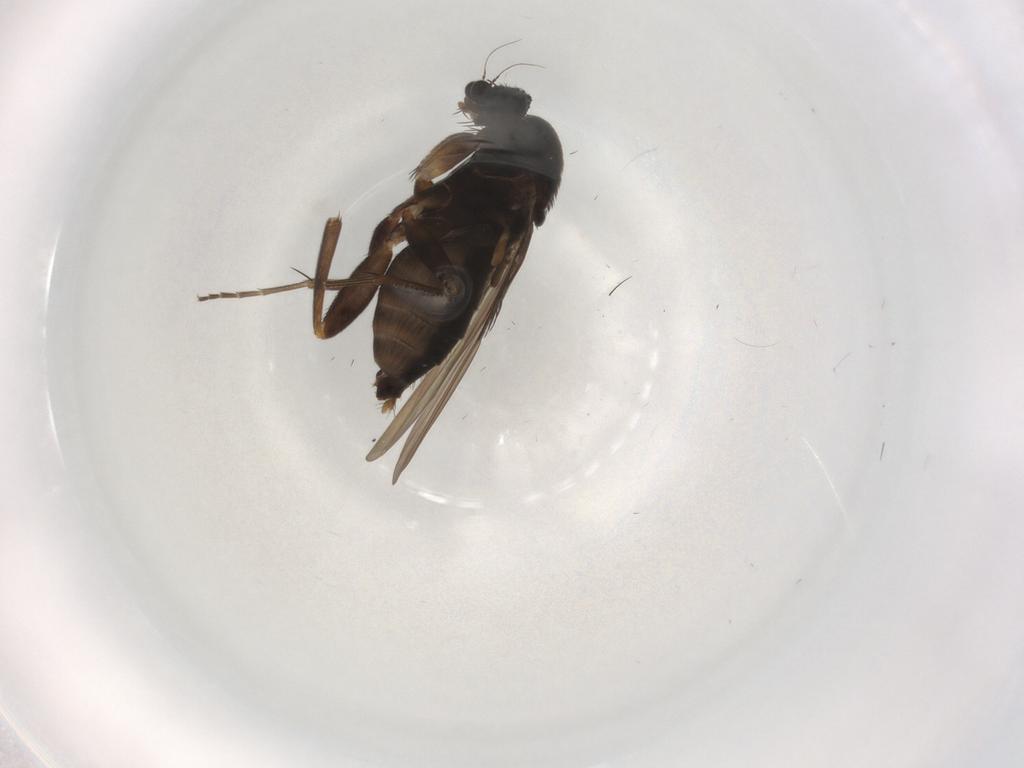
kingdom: Animalia
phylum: Arthropoda
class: Insecta
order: Diptera
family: Phoridae
